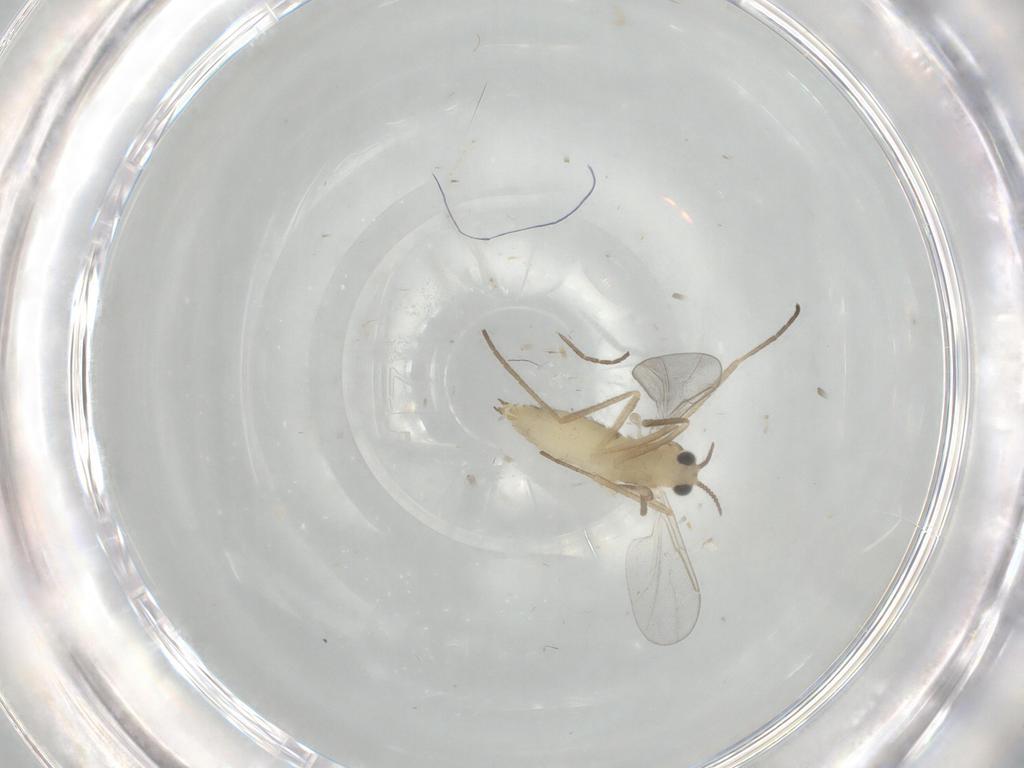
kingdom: Animalia
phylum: Arthropoda
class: Insecta
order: Diptera
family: Cecidomyiidae
